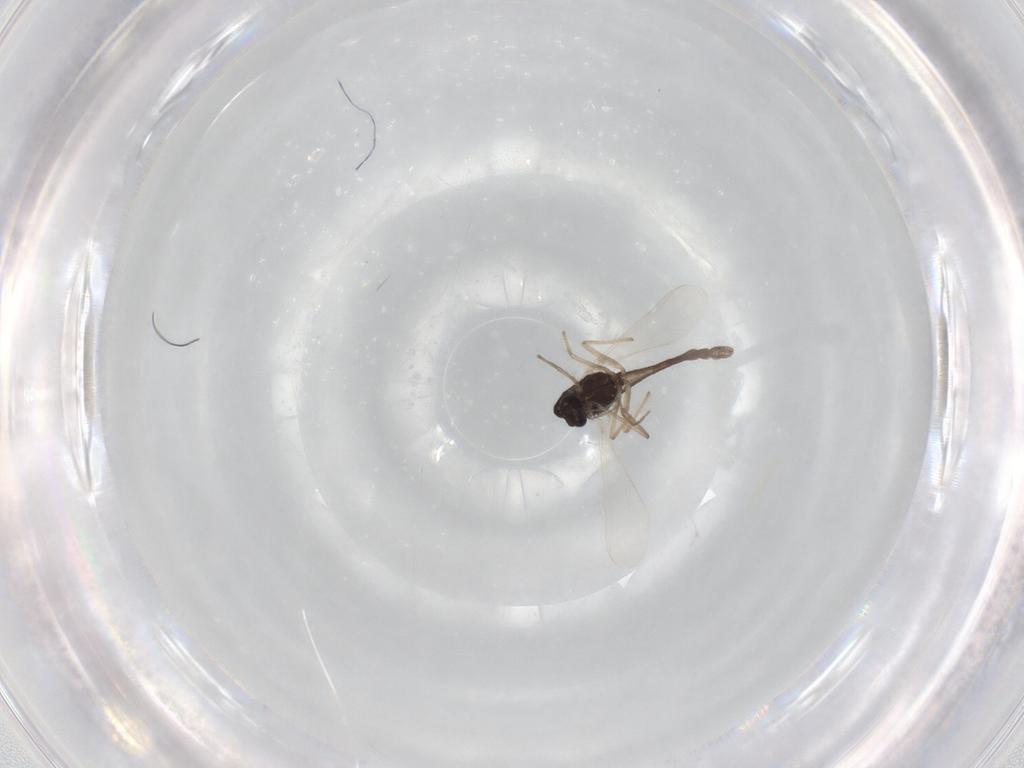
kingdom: Animalia
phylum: Arthropoda
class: Insecta
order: Diptera
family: Chironomidae
